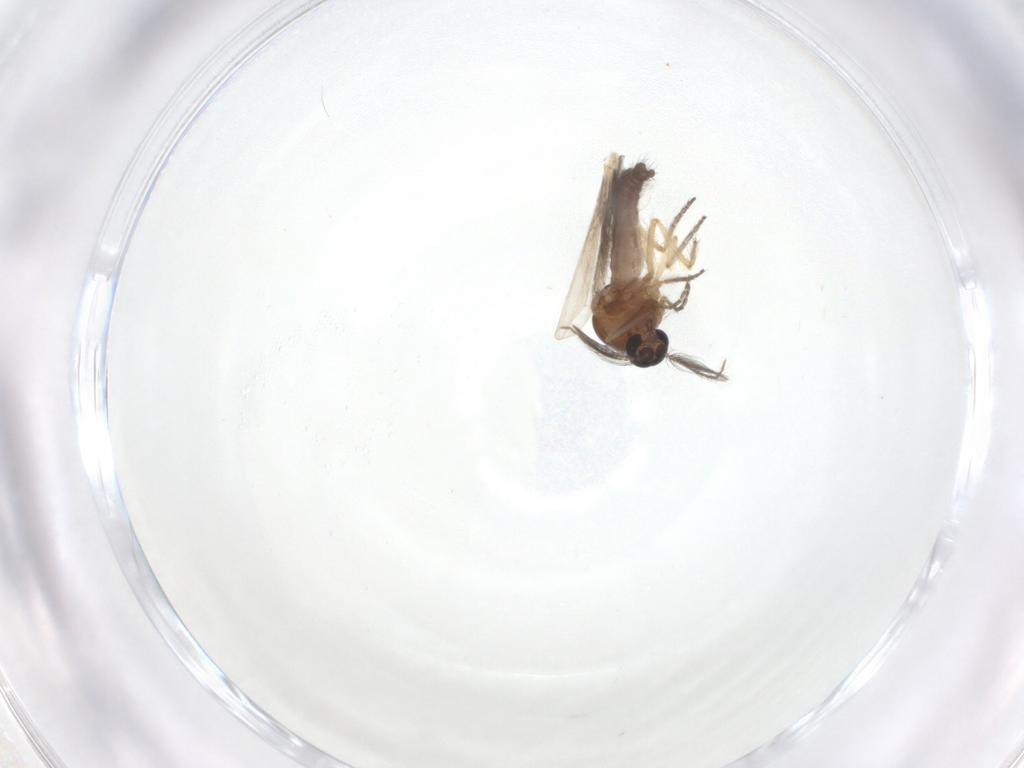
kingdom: Animalia
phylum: Arthropoda
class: Insecta
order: Diptera
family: Ceratopogonidae
